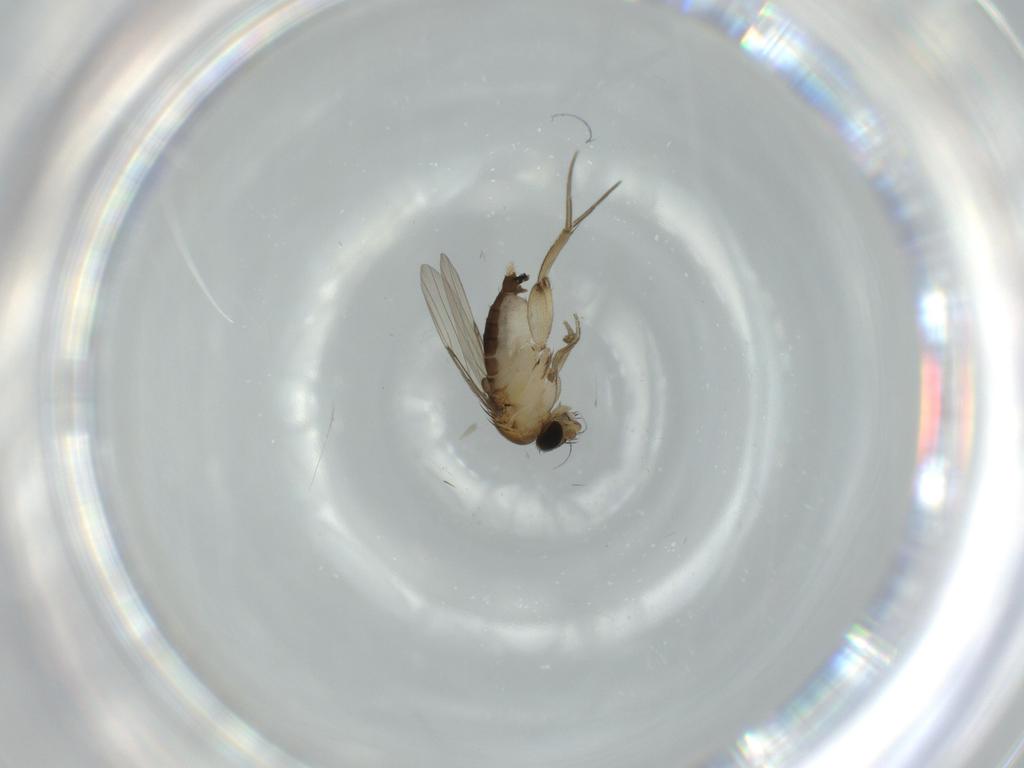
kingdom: Animalia
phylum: Arthropoda
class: Insecta
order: Diptera
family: Phoridae
